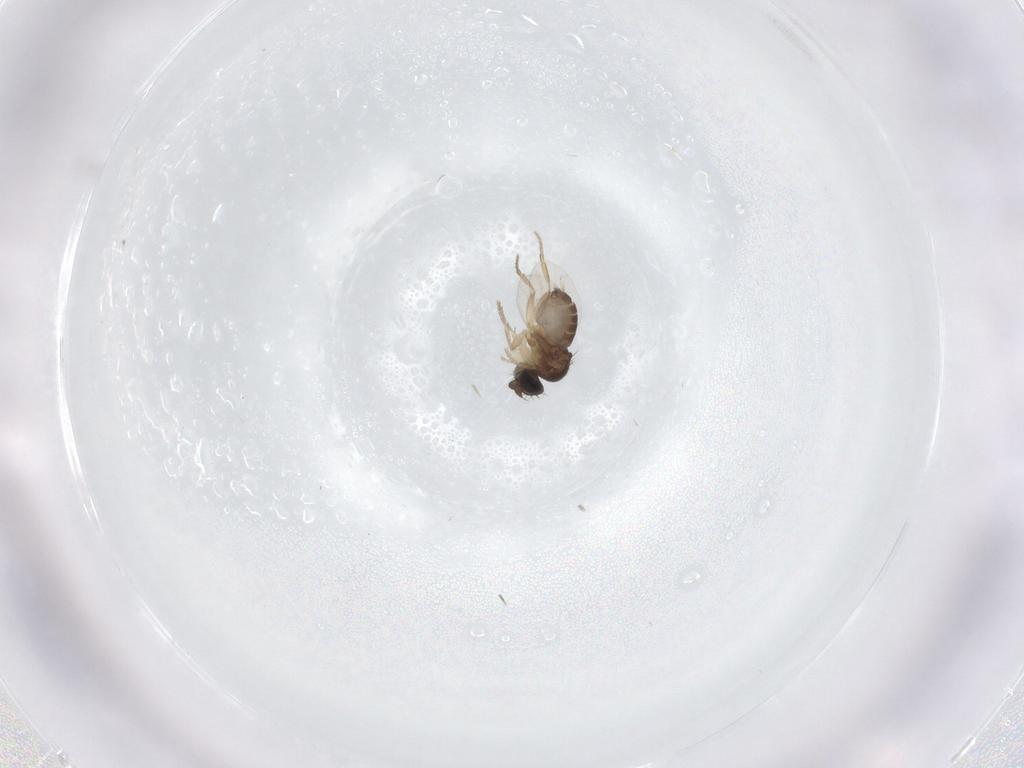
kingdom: Animalia
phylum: Arthropoda
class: Insecta
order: Diptera
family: Phoridae
